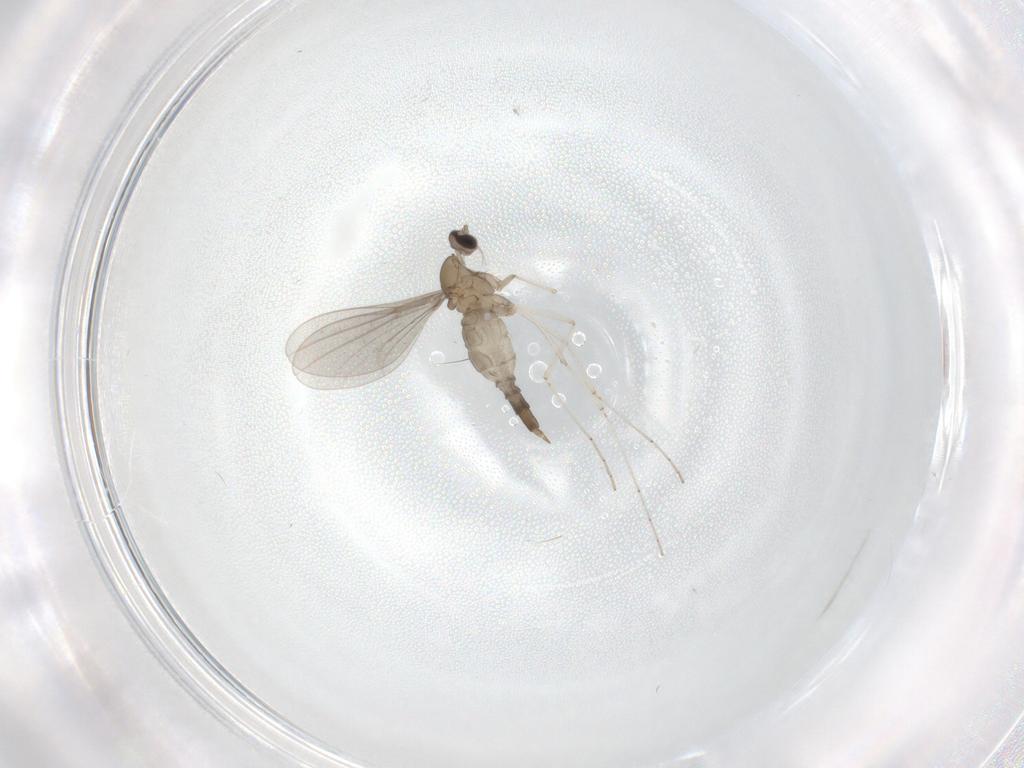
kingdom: Animalia
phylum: Arthropoda
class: Insecta
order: Diptera
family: Cecidomyiidae
